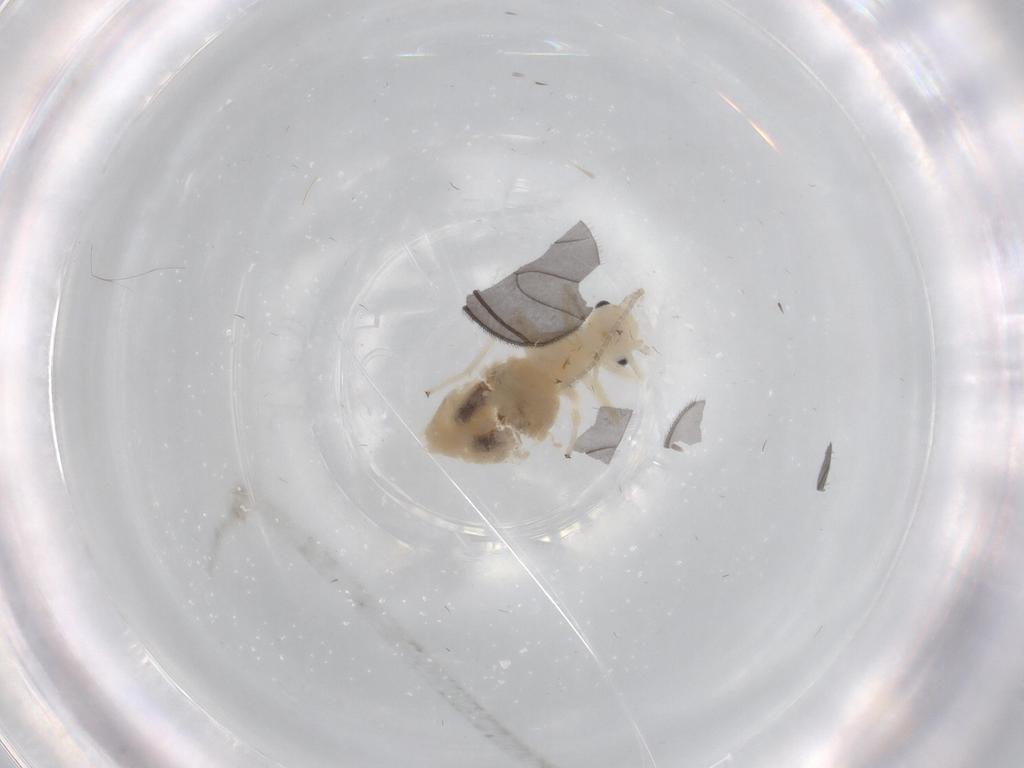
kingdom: Animalia
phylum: Arthropoda
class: Insecta
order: Psocodea
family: Amphipsocidae
